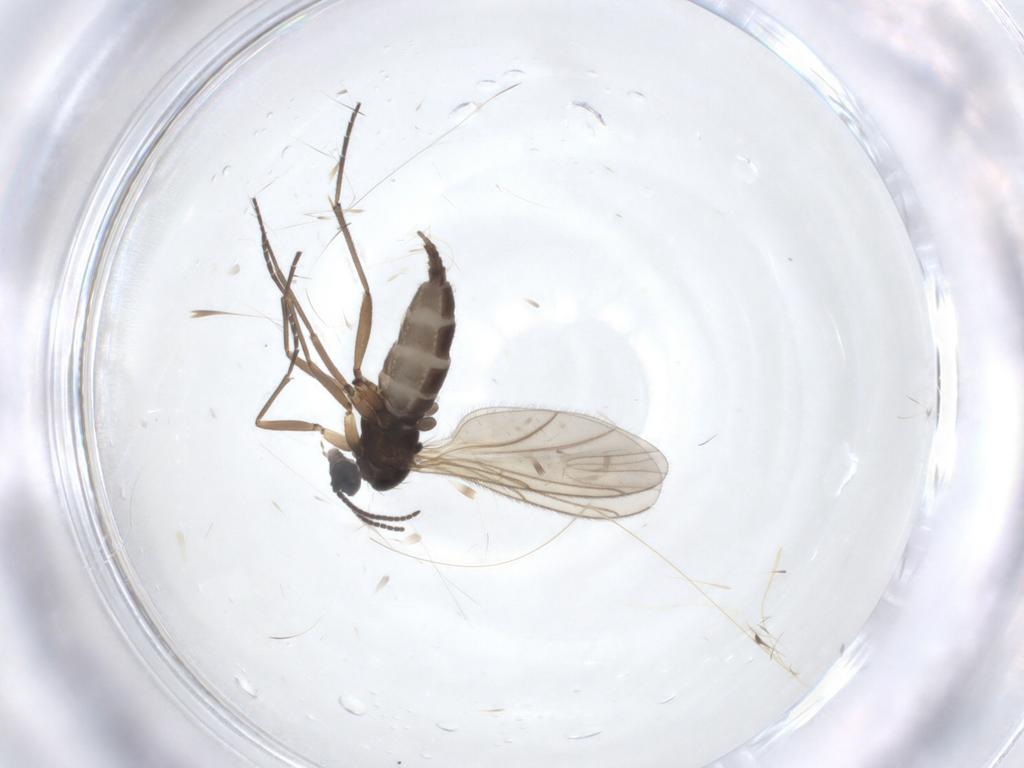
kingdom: Animalia
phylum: Arthropoda
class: Insecta
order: Diptera
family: Sciaridae
